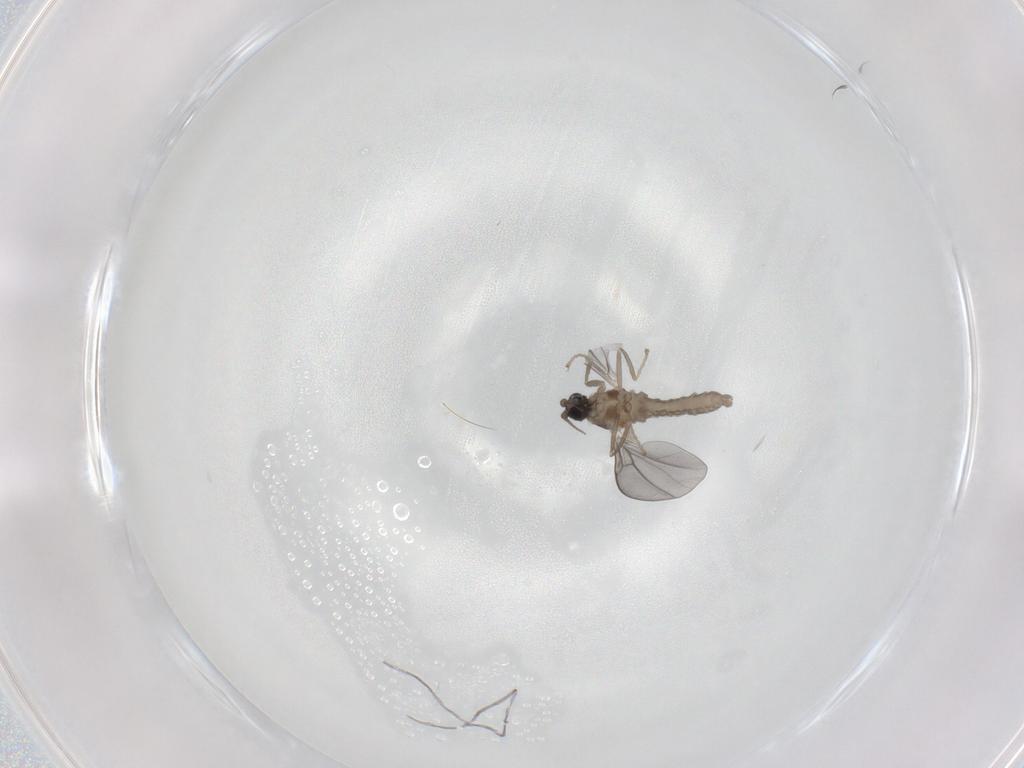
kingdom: Animalia
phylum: Arthropoda
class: Insecta
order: Diptera
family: Cecidomyiidae
